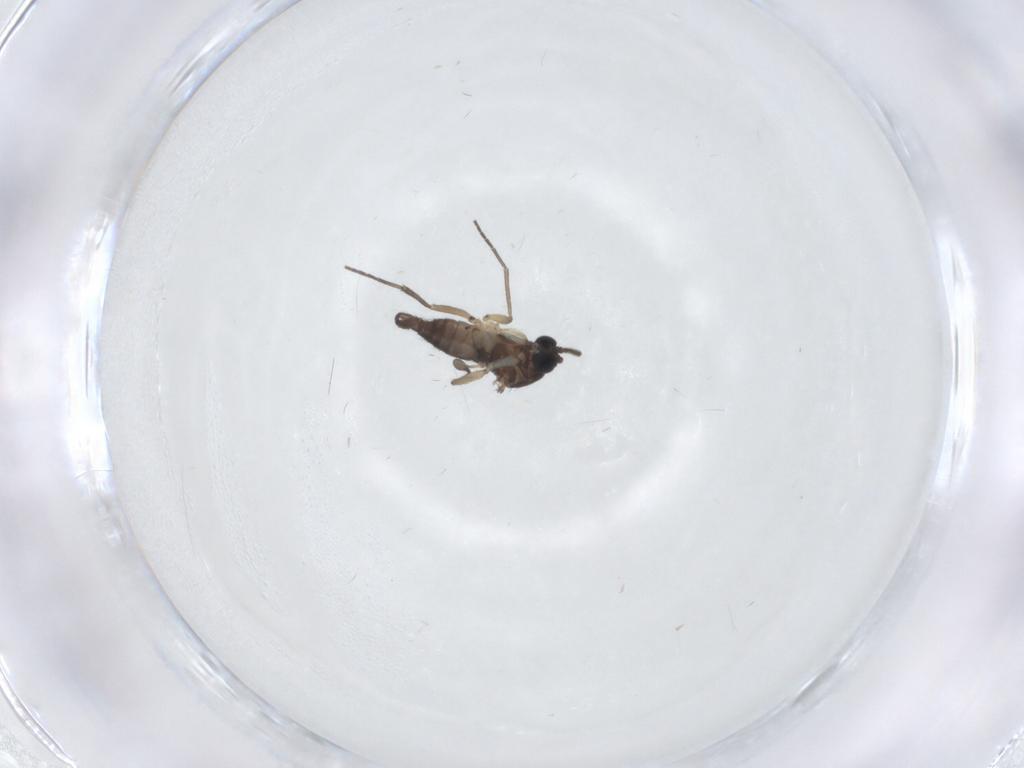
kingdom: Animalia
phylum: Arthropoda
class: Insecta
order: Diptera
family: Sciaridae
